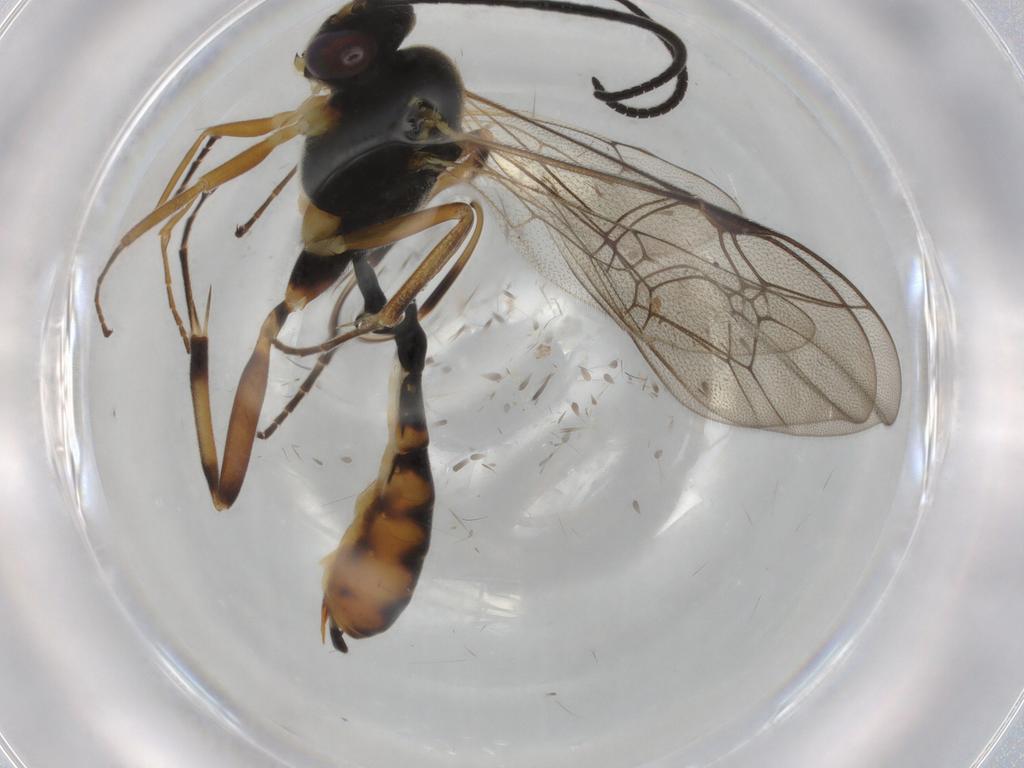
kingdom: Animalia
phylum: Arthropoda
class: Insecta
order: Hymenoptera
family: Ichneumonidae
